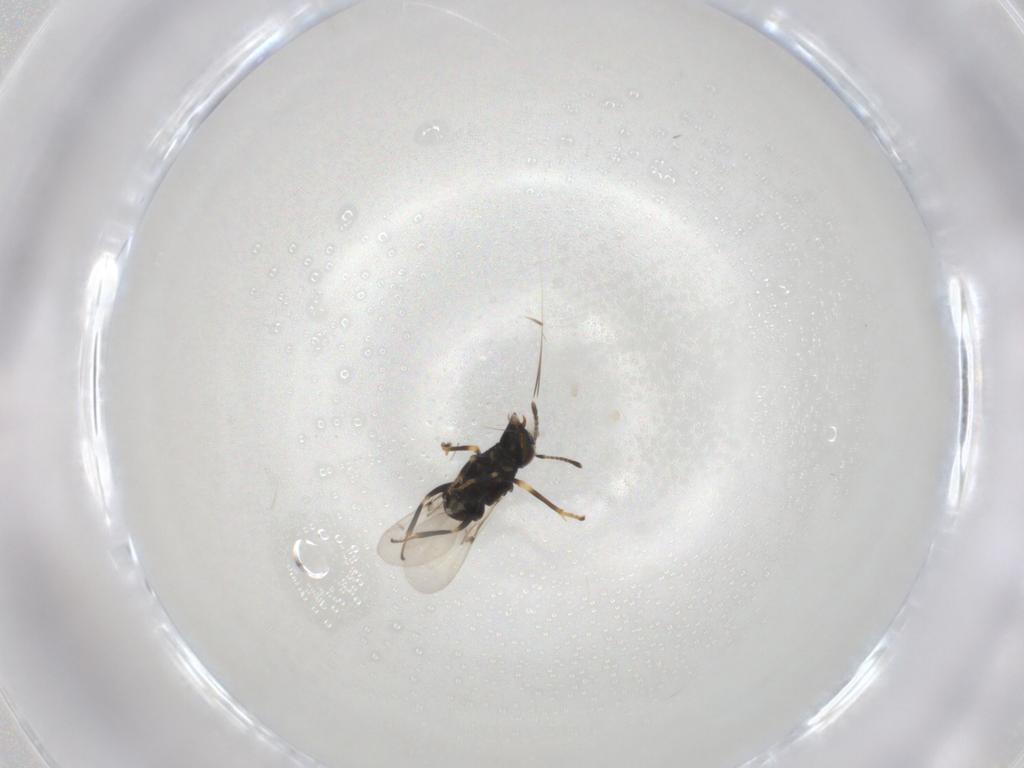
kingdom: Animalia
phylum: Arthropoda
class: Insecta
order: Hymenoptera
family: Encyrtidae
